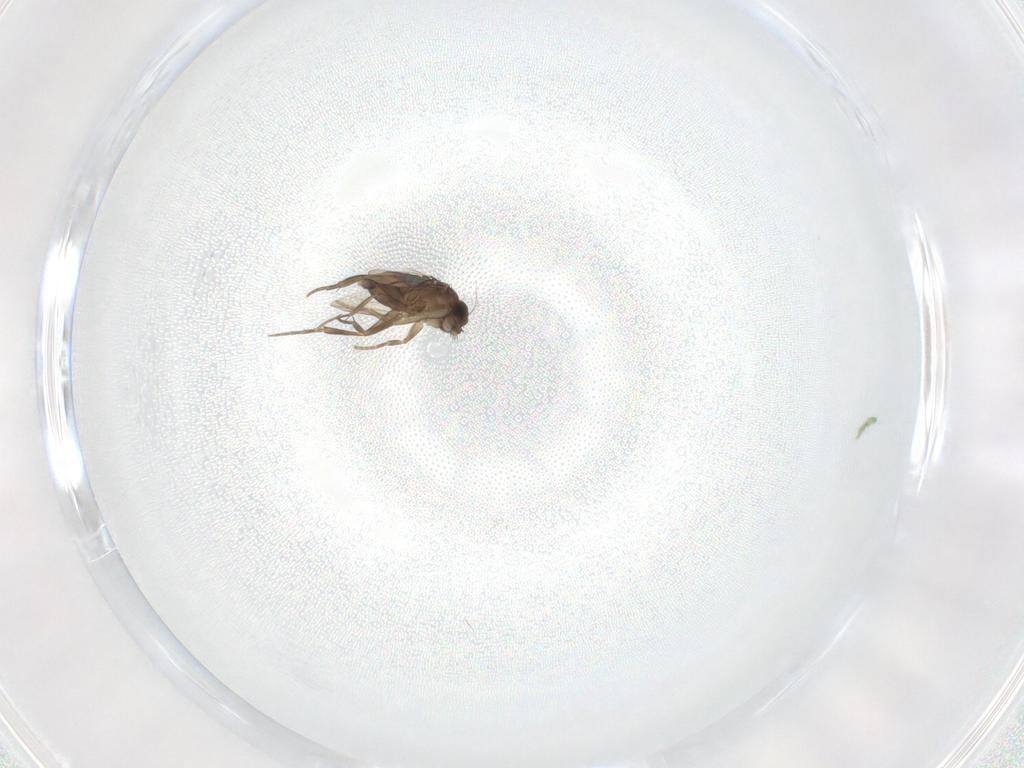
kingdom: Animalia
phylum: Arthropoda
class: Insecta
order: Diptera
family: Phoridae
